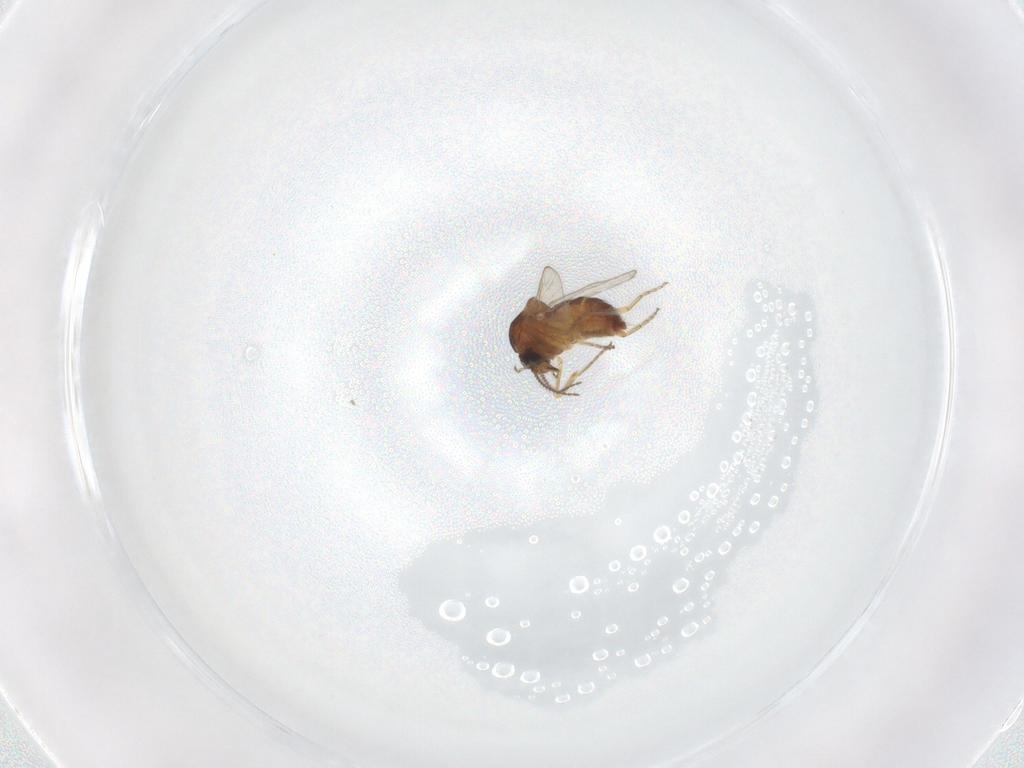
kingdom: Animalia
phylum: Arthropoda
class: Insecta
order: Diptera
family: Ceratopogonidae
